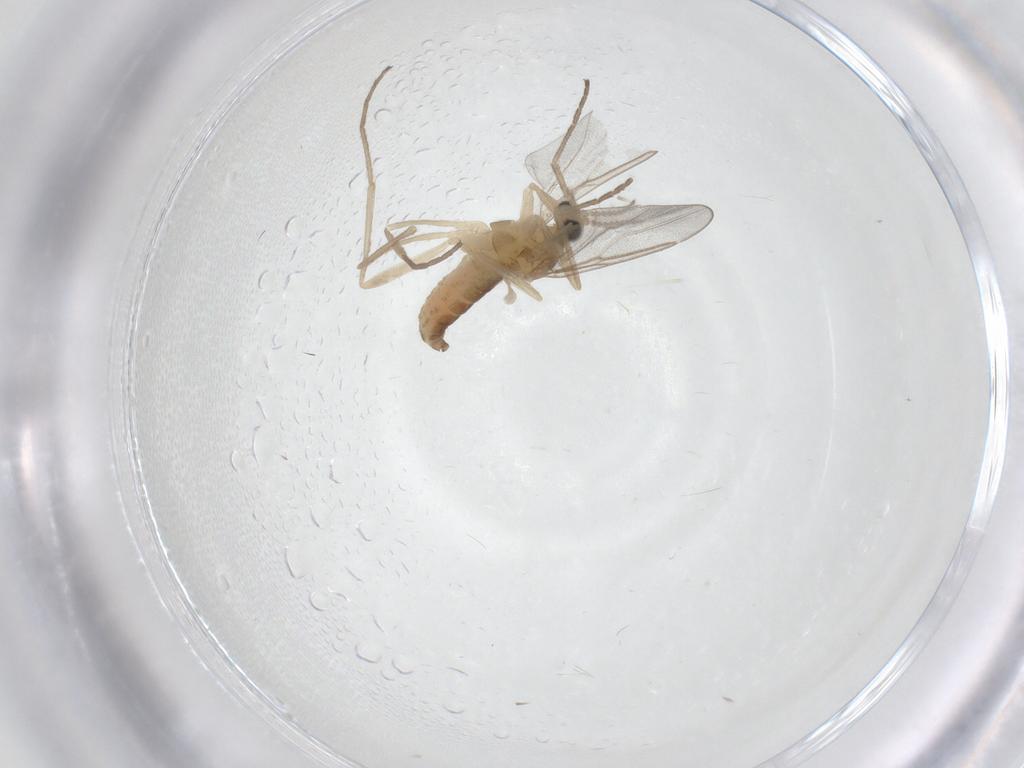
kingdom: Animalia
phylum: Arthropoda
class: Insecta
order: Diptera
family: Cecidomyiidae
